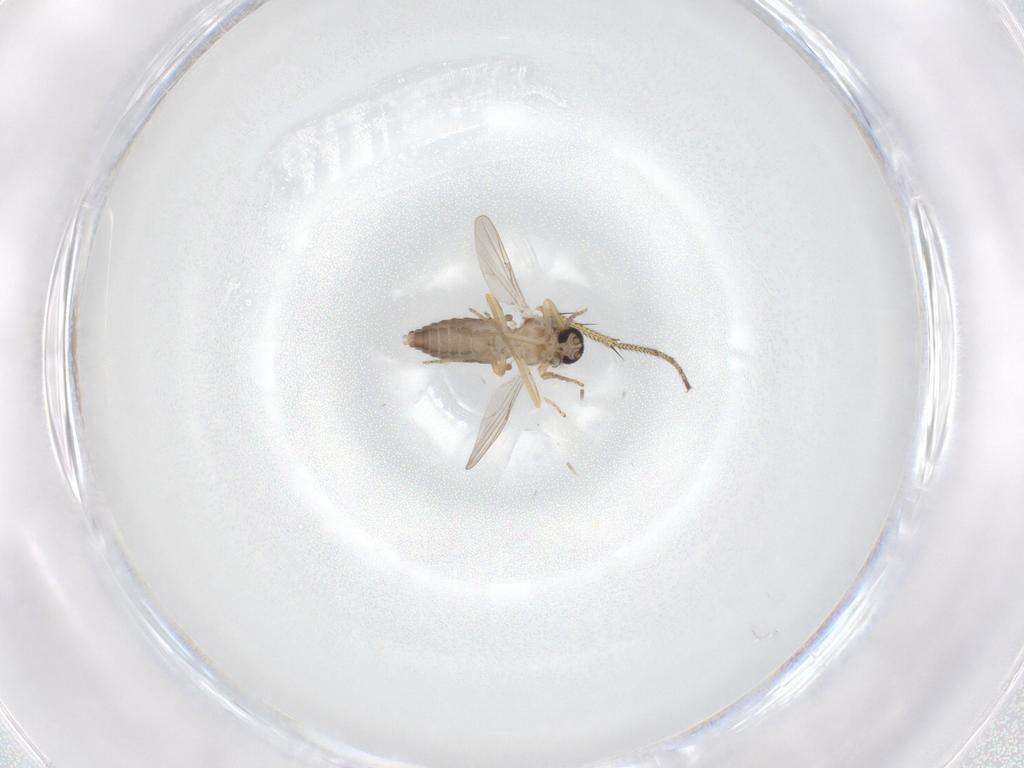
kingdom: Animalia
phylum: Arthropoda
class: Insecta
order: Diptera
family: Ceratopogonidae
